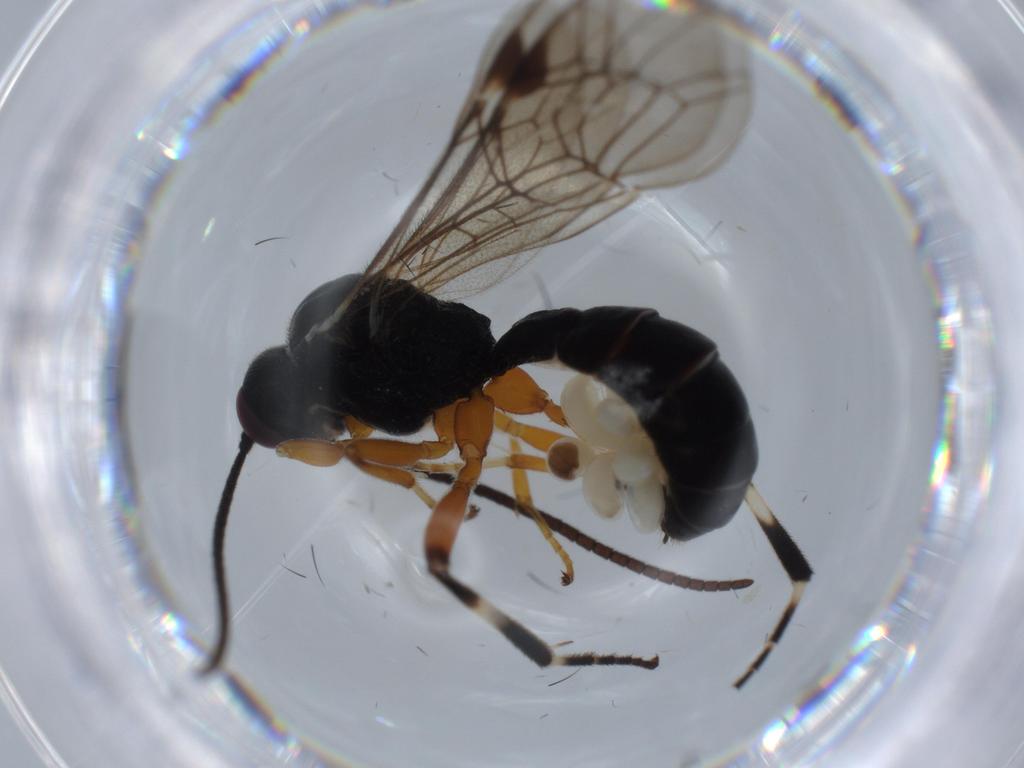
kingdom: Animalia
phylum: Arthropoda
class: Insecta
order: Hymenoptera
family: Ichneumonidae
